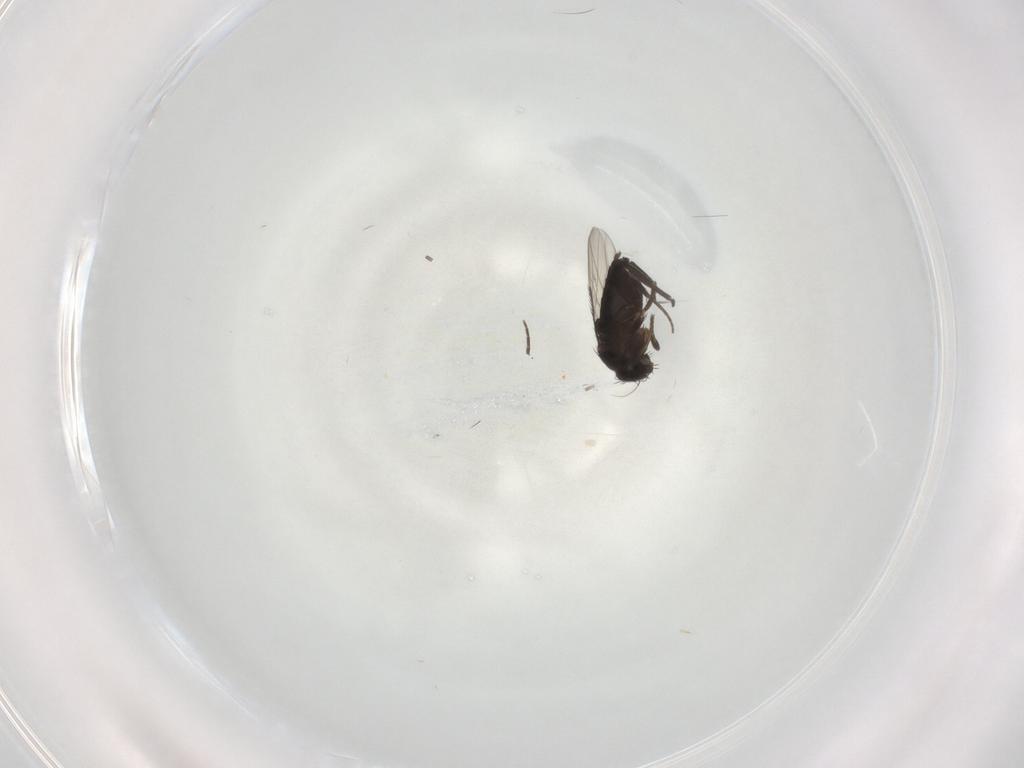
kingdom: Animalia
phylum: Arthropoda
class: Insecta
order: Diptera
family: Phoridae
